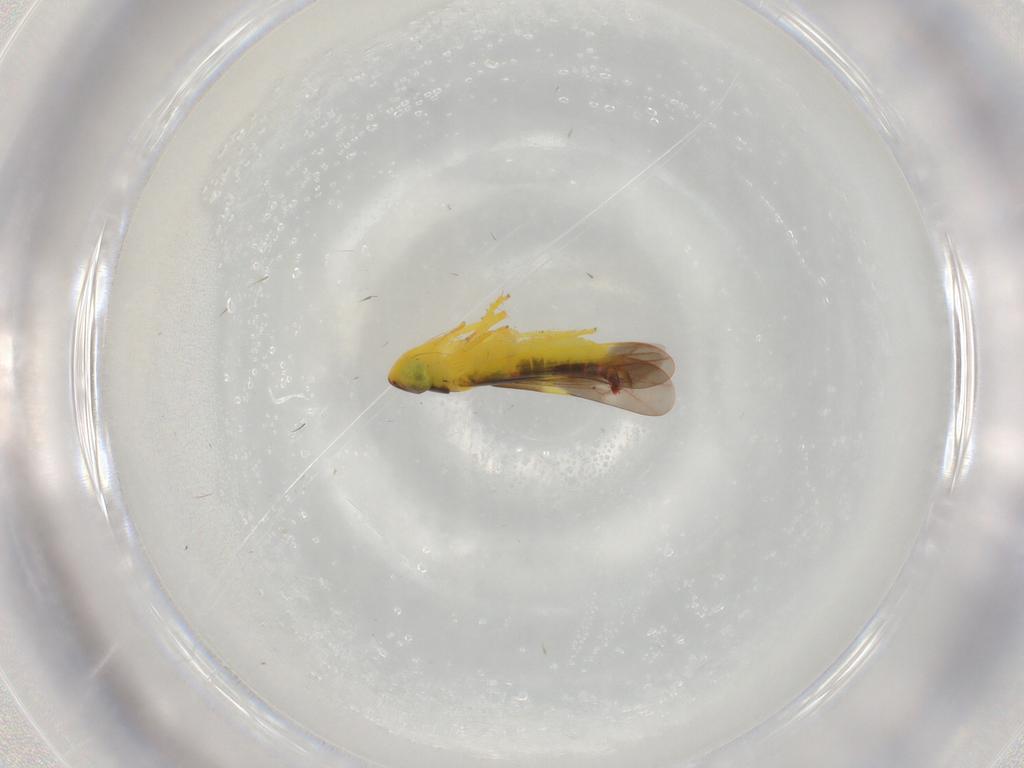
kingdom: Animalia
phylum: Arthropoda
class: Insecta
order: Hemiptera
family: Cicadellidae
